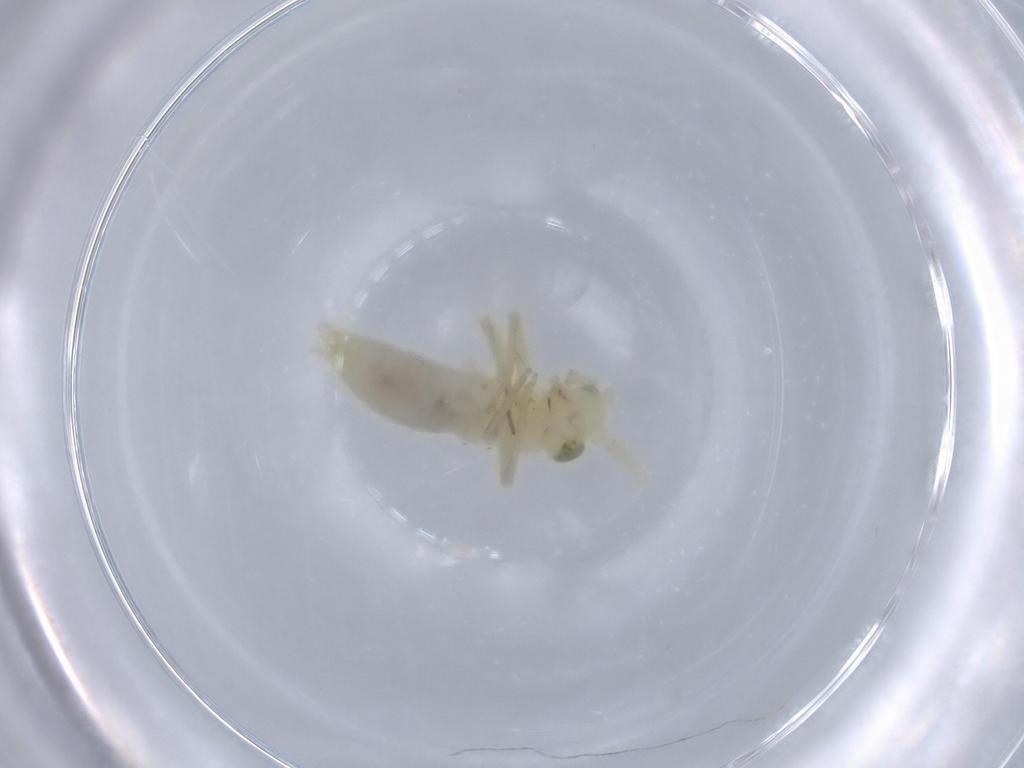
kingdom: Animalia
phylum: Arthropoda
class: Insecta
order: Orthoptera
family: Trigonidiidae
